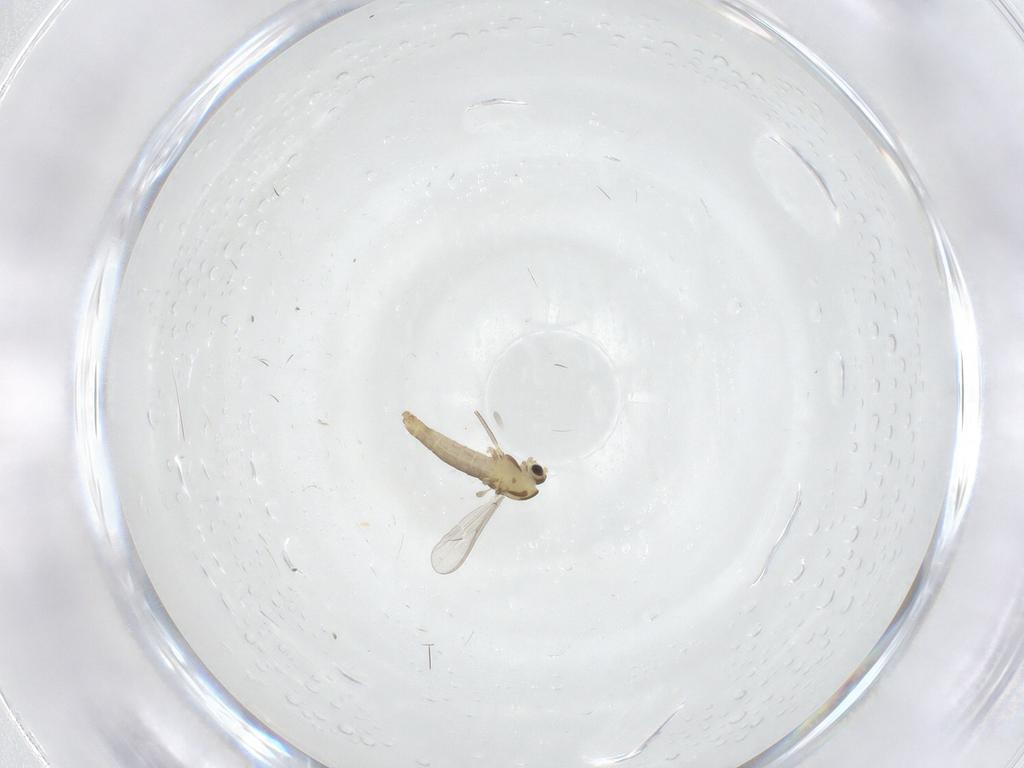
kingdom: Animalia
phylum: Arthropoda
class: Insecta
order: Diptera
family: Chironomidae
